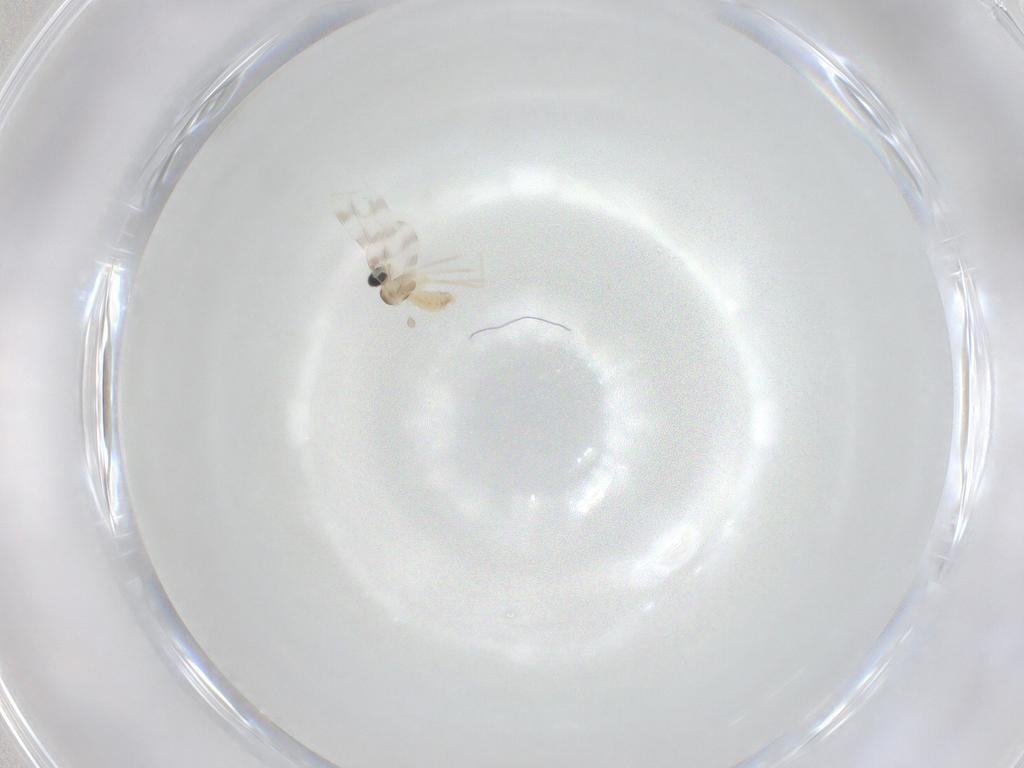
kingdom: Animalia
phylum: Arthropoda
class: Insecta
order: Diptera
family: Cecidomyiidae
